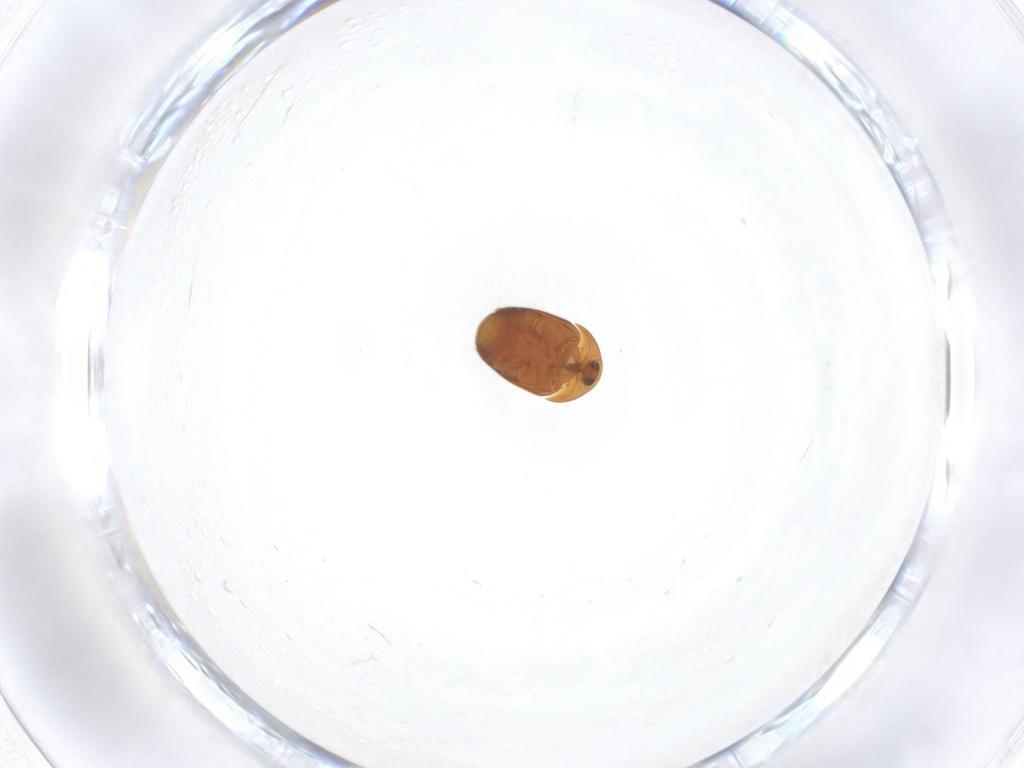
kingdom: Animalia
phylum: Arthropoda
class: Insecta
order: Coleoptera
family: Corylophidae
